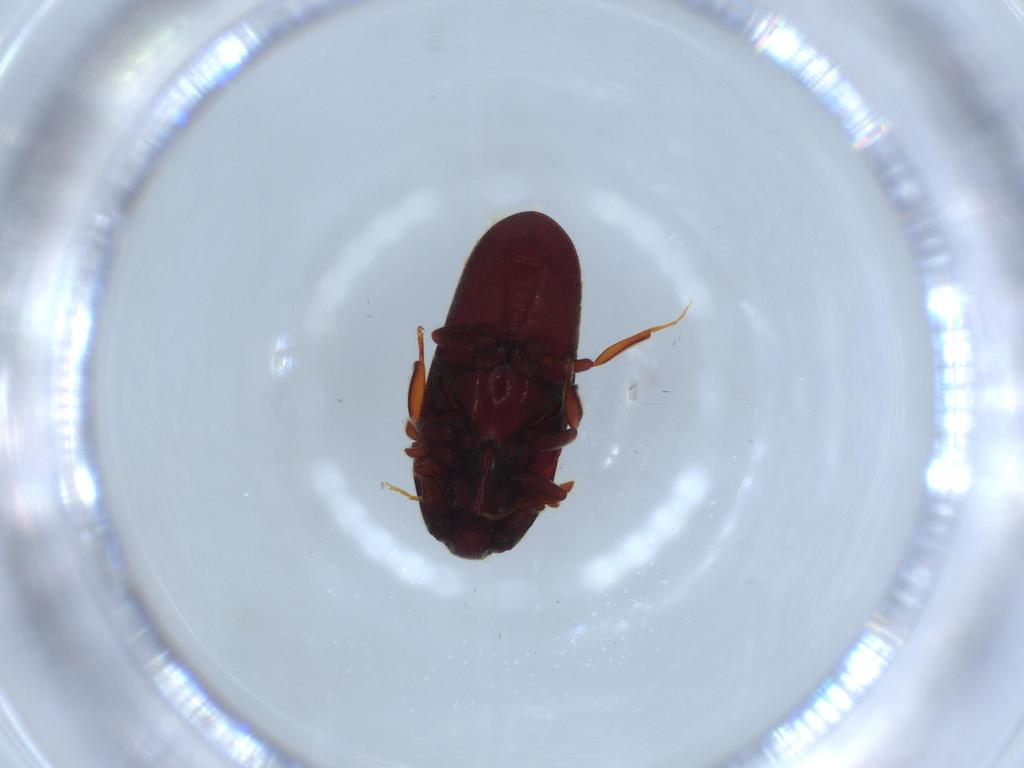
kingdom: Animalia
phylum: Arthropoda
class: Insecta
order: Coleoptera
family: Throscidae
